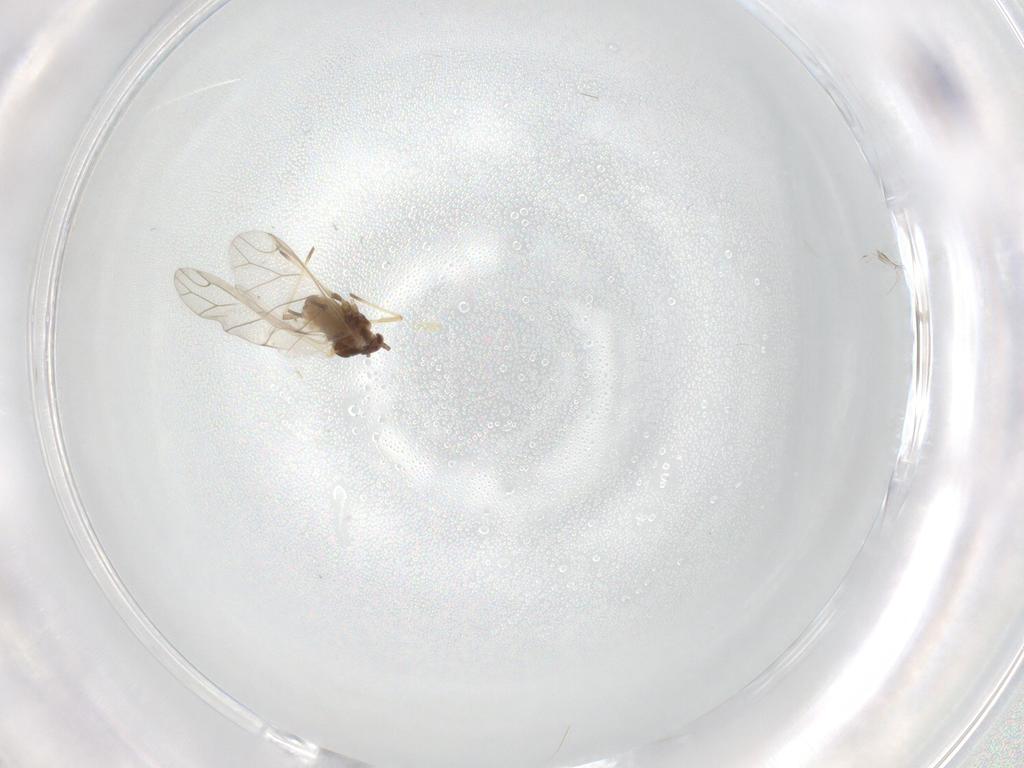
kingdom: Animalia
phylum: Arthropoda
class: Insecta
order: Hemiptera
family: Aphididae
